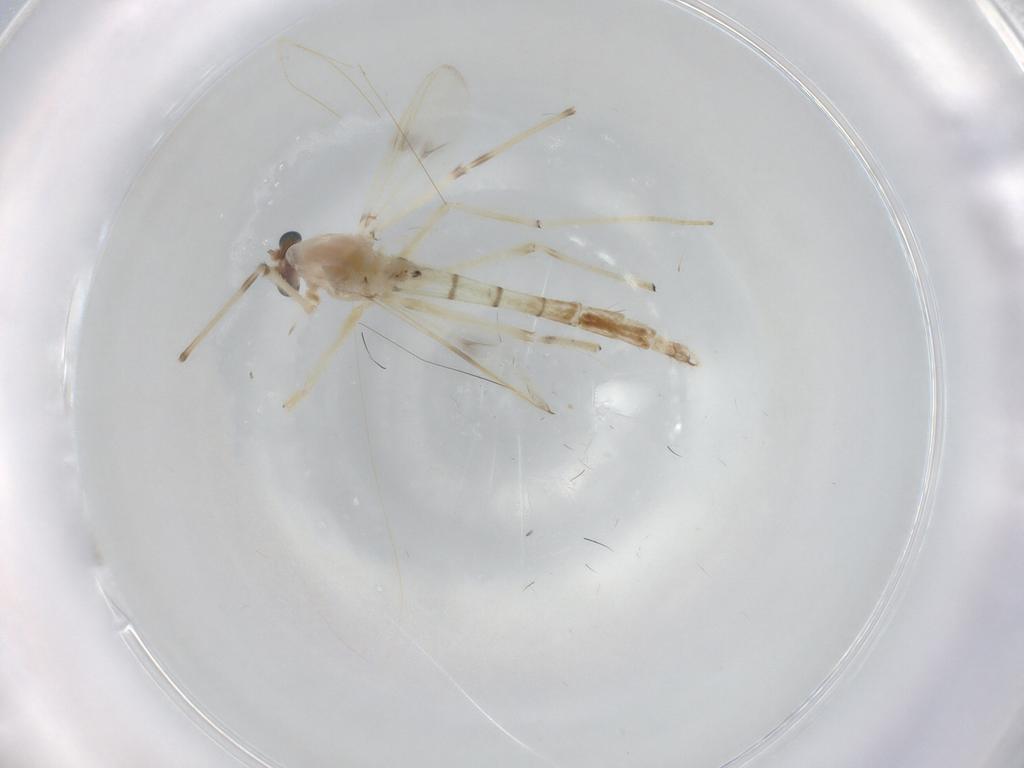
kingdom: Animalia
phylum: Arthropoda
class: Insecta
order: Diptera
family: Chironomidae
